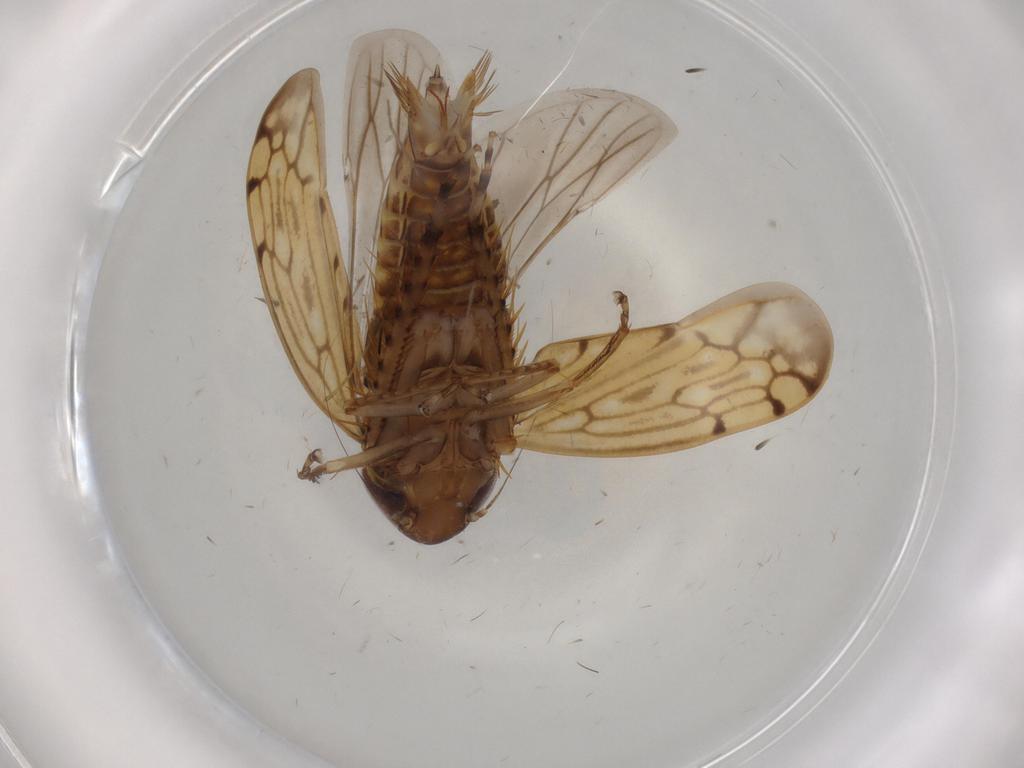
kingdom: Animalia
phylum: Arthropoda
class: Insecta
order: Hemiptera
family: Cicadellidae
